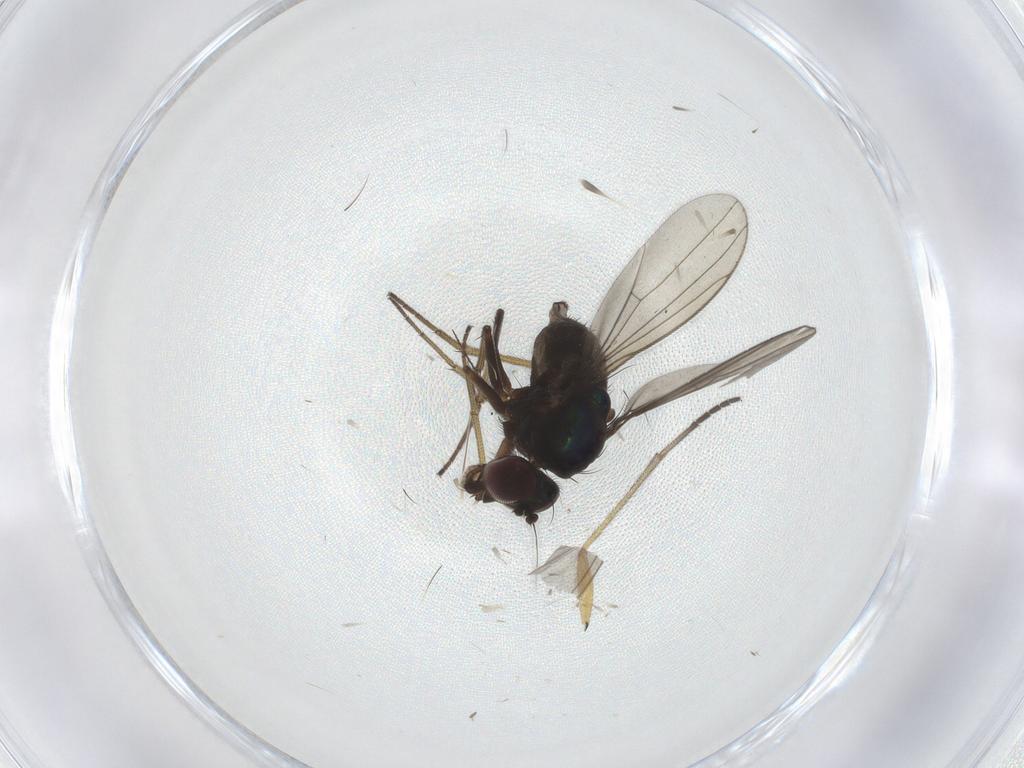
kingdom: Animalia
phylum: Arthropoda
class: Insecta
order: Diptera
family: Dolichopodidae
